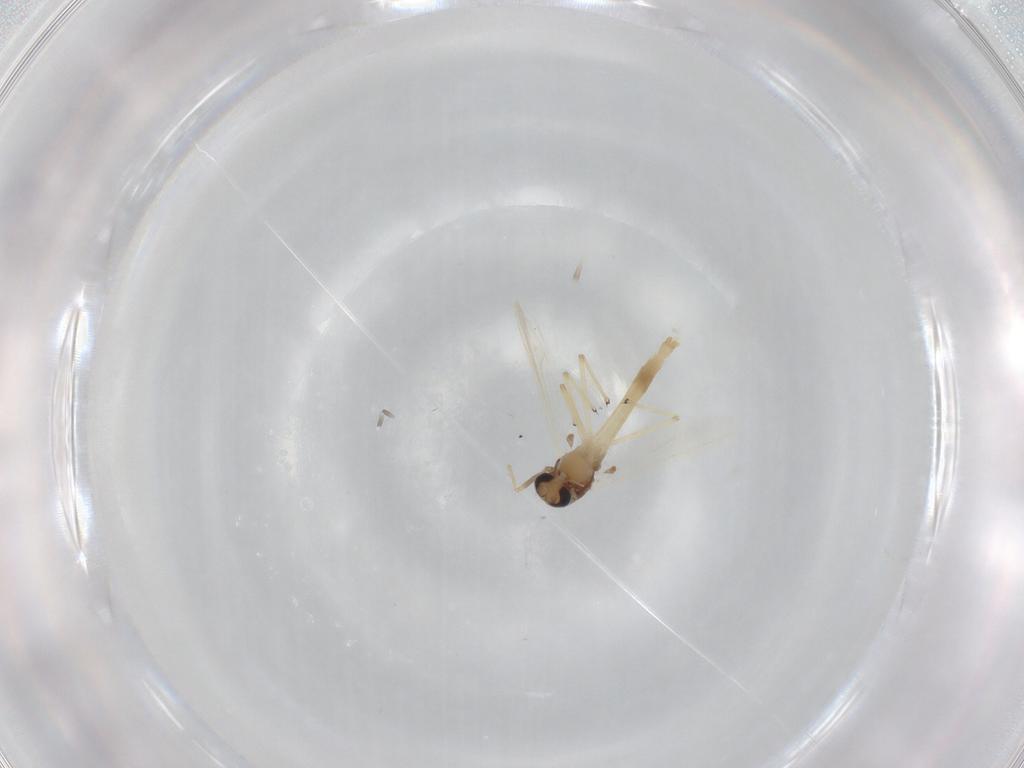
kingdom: Animalia
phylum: Arthropoda
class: Insecta
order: Diptera
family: Chironomidae
